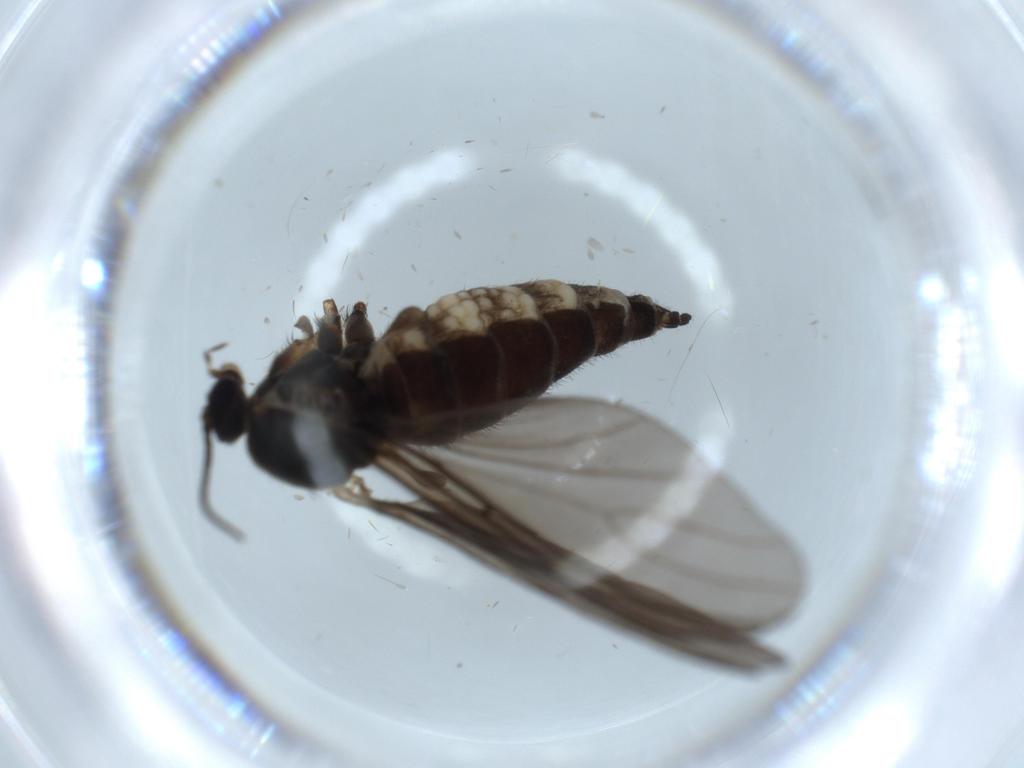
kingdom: Animalia
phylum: Arthropoda
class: Insecta
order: Diptera
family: Sciaridae
